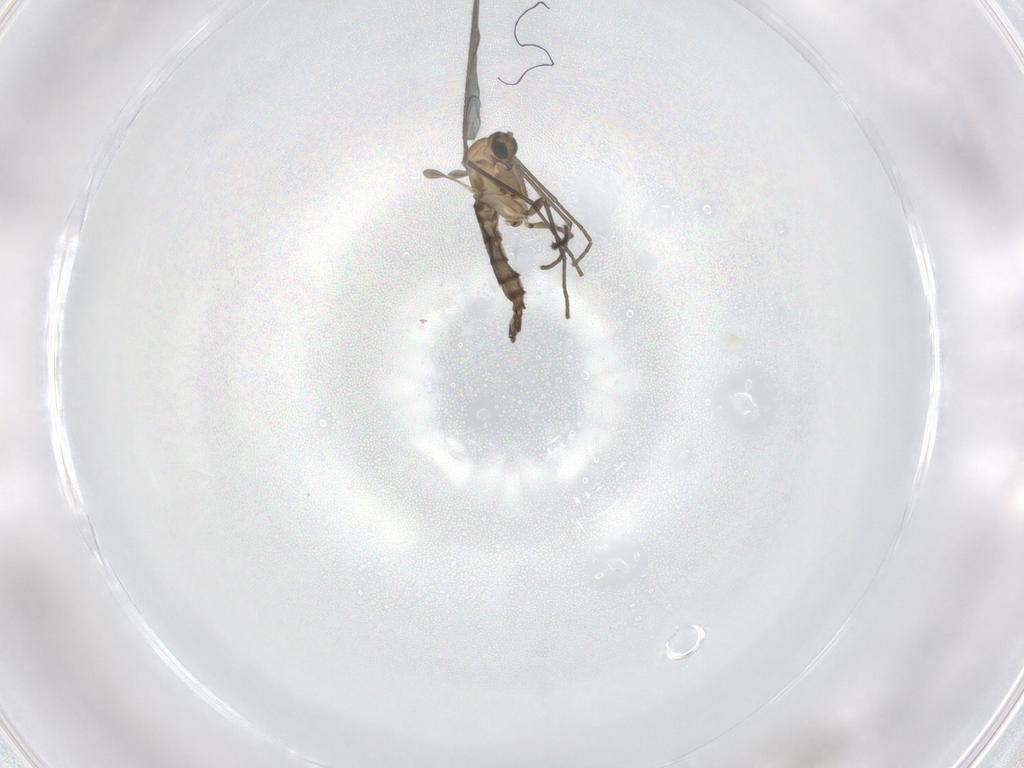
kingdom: Animalia
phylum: Arthropoda
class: Insecta
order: Diptera
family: Sciaridae
